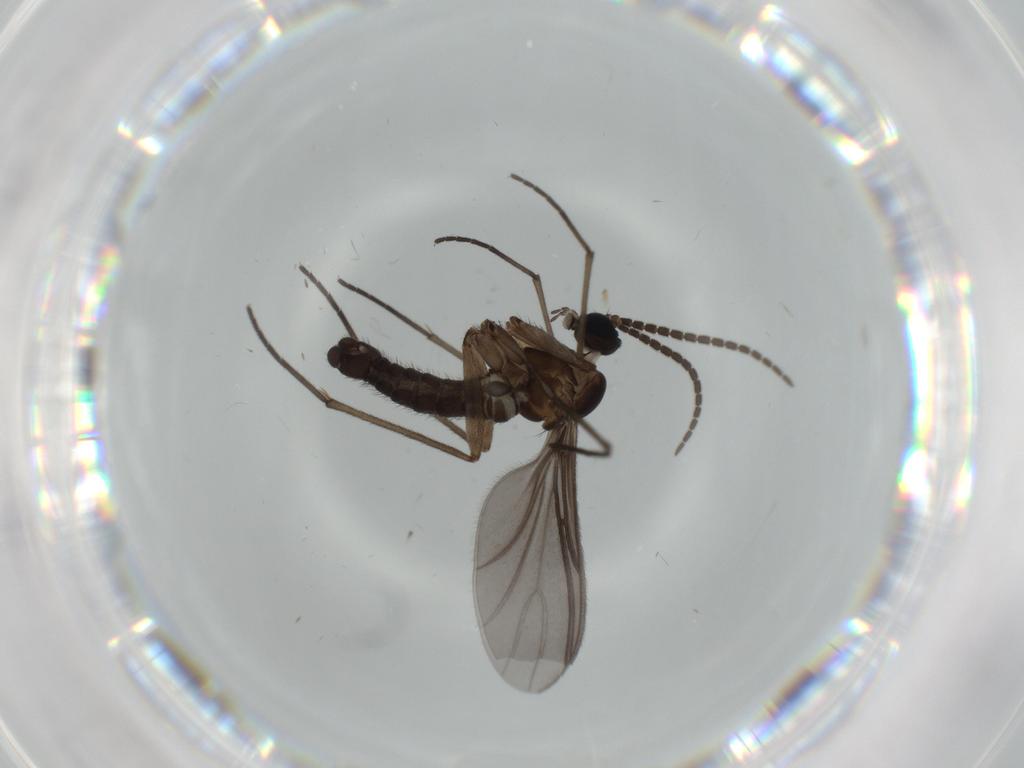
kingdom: Animalia
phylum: Arthropoda
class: Insecta
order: Diptera
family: Sciaridae
